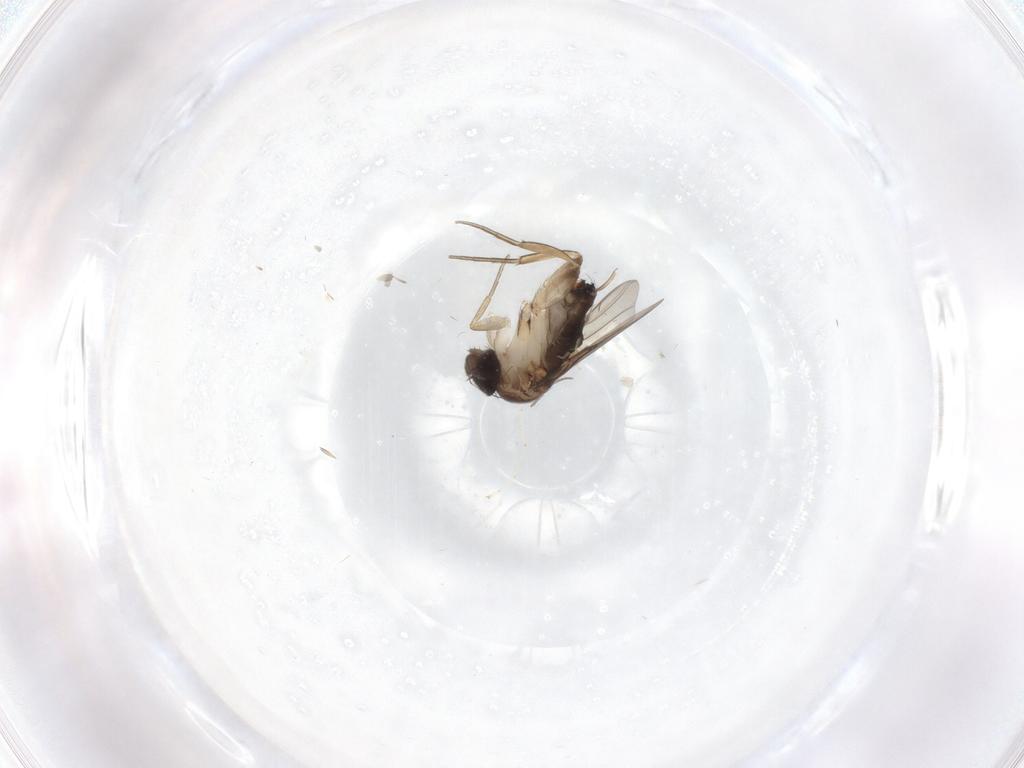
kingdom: Animalia
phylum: Arthropoda
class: Insecta
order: Diptera
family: Chironomidae
